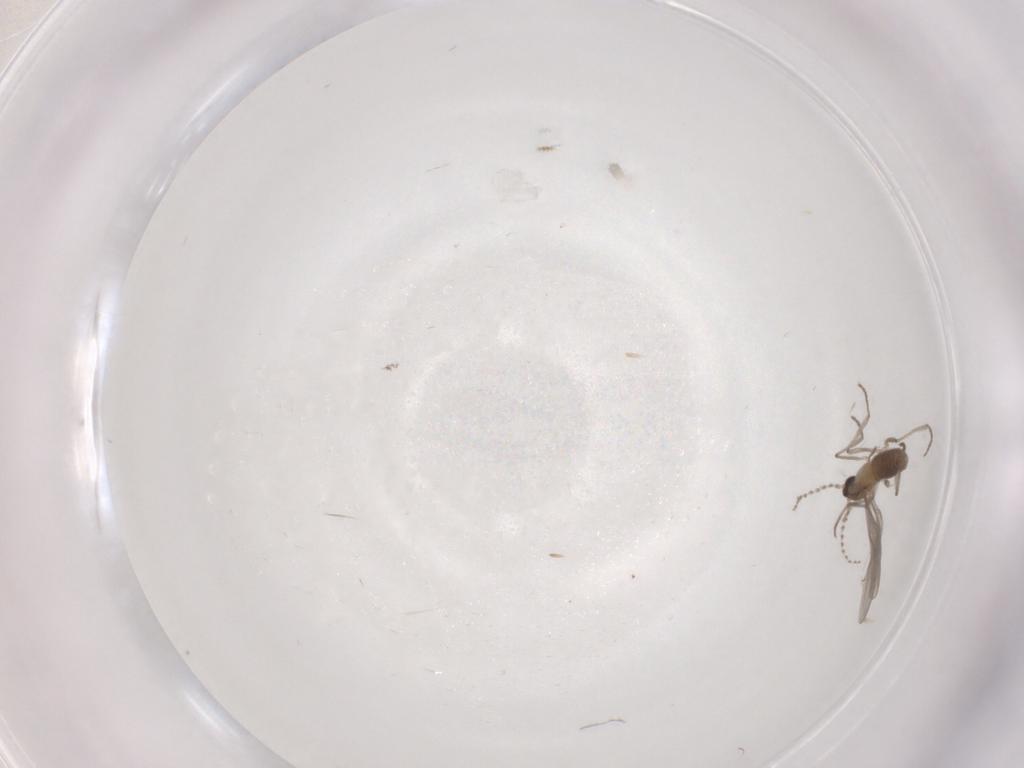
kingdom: Animalia
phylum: Arthropoda
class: Insecta
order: Diptera
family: Chironomidae
